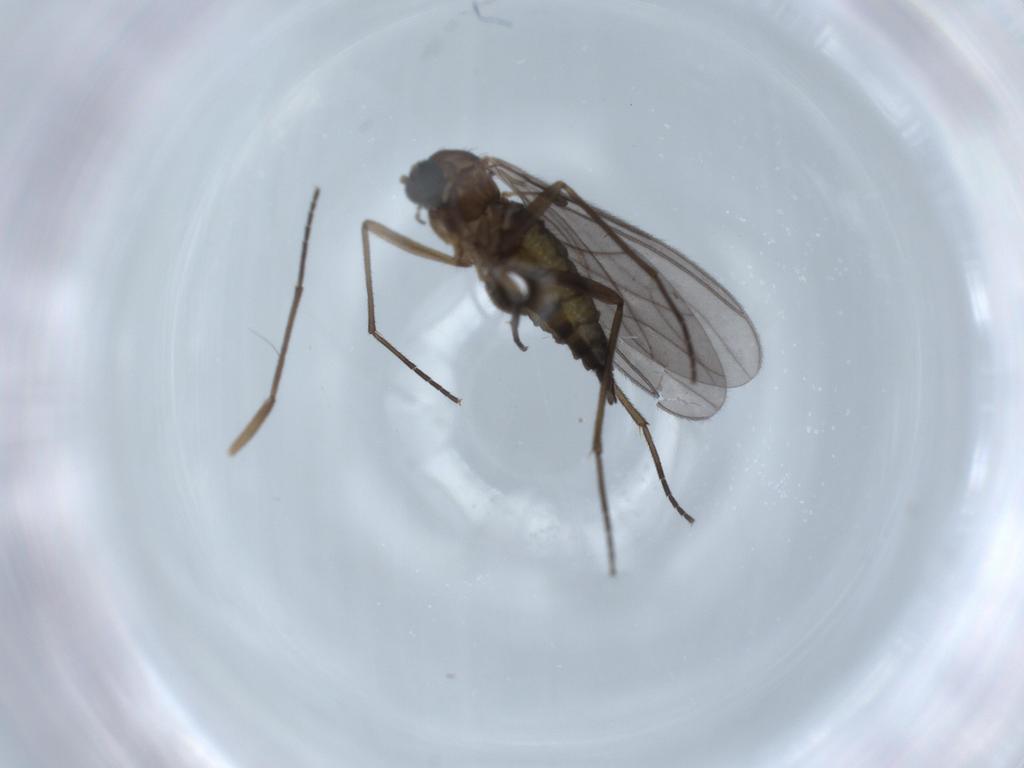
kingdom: Animalia
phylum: Arthropoda
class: Insecta
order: Diptera
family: Sciaridae
